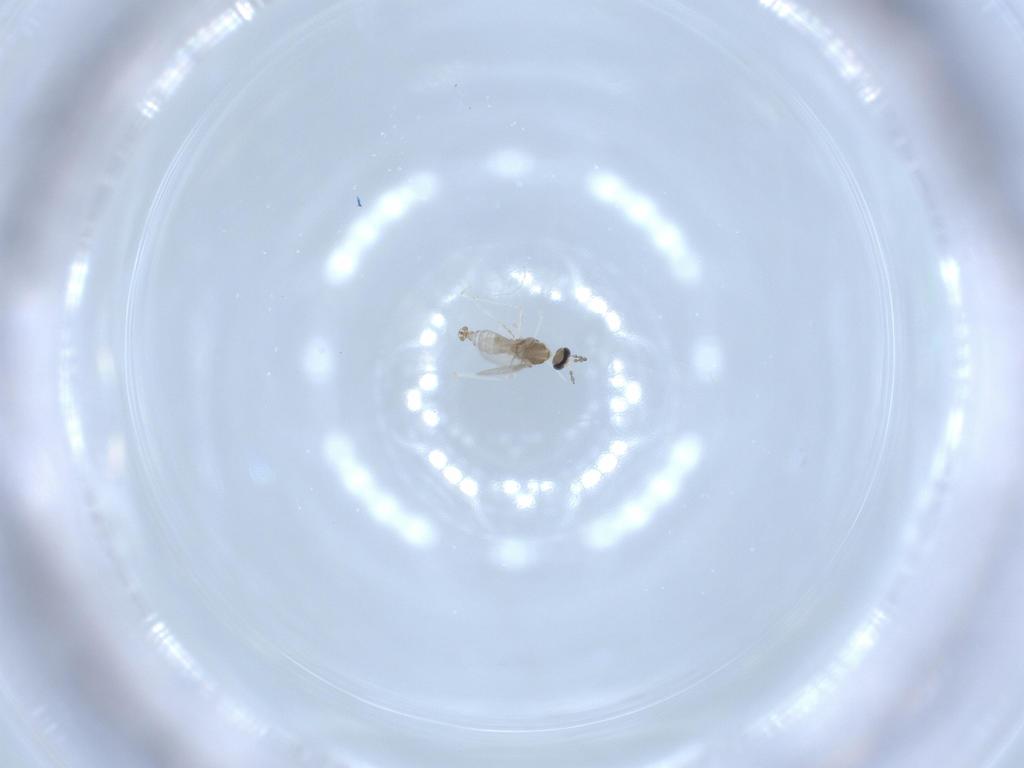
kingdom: Animalia
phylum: Arthropoda
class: Insecta
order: Diptera
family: Cecidomyiidae
